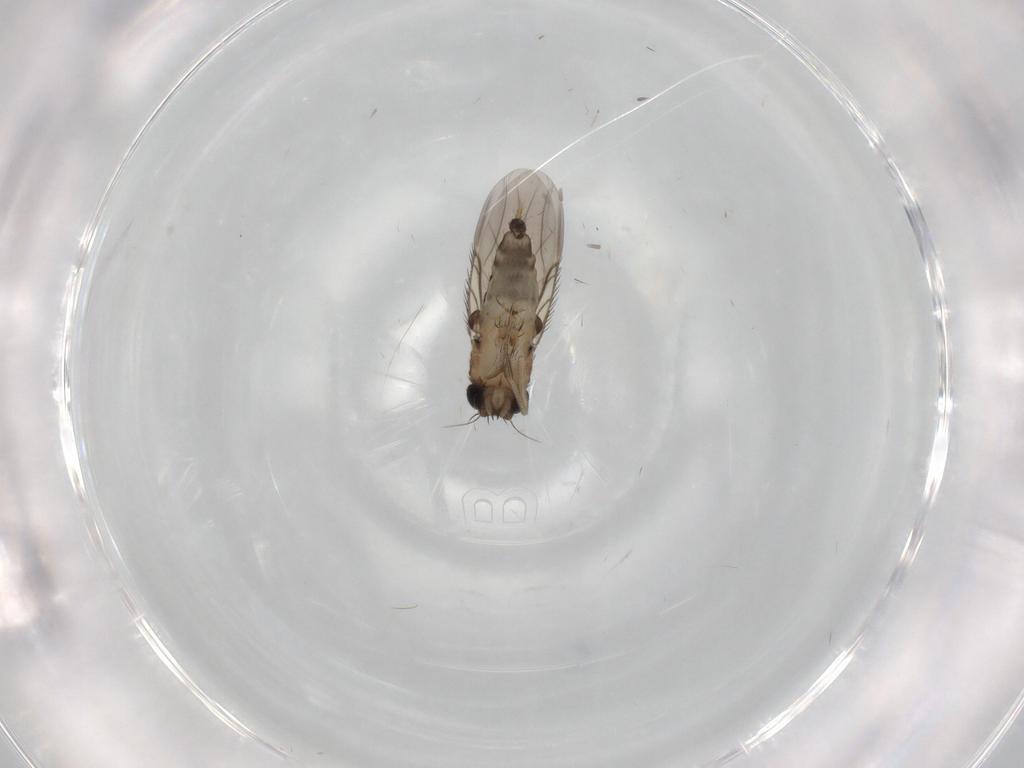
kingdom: Animalia
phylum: Arthropoda
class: Insecta
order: Diptera
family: Phoridae
